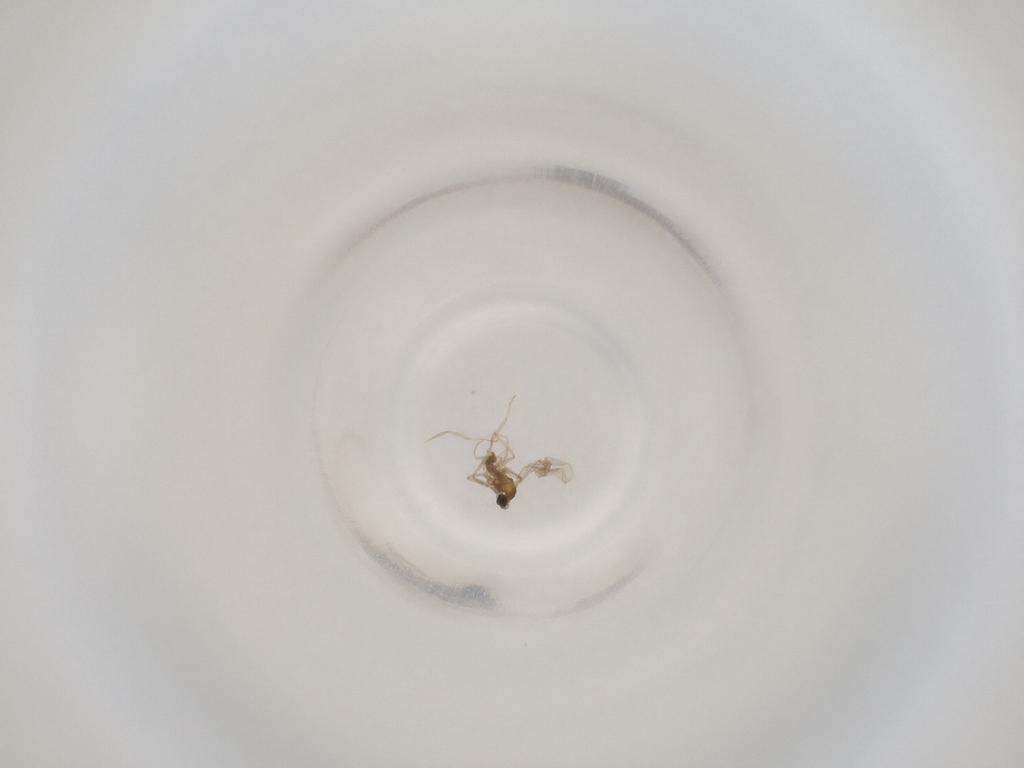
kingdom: Animalia
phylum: Arthropoda
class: Insecta
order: Diptera
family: Cecidomyiidae
